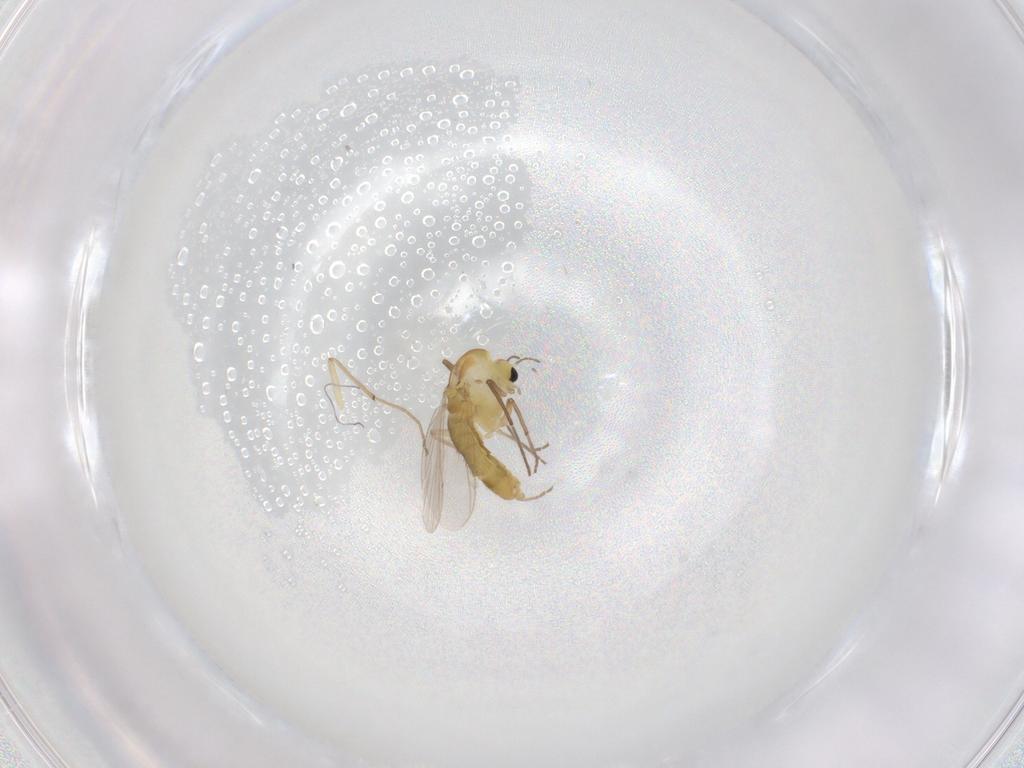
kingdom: Animalia
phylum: Arthropoda
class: Insecta
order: Diptera
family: Chironomidae
